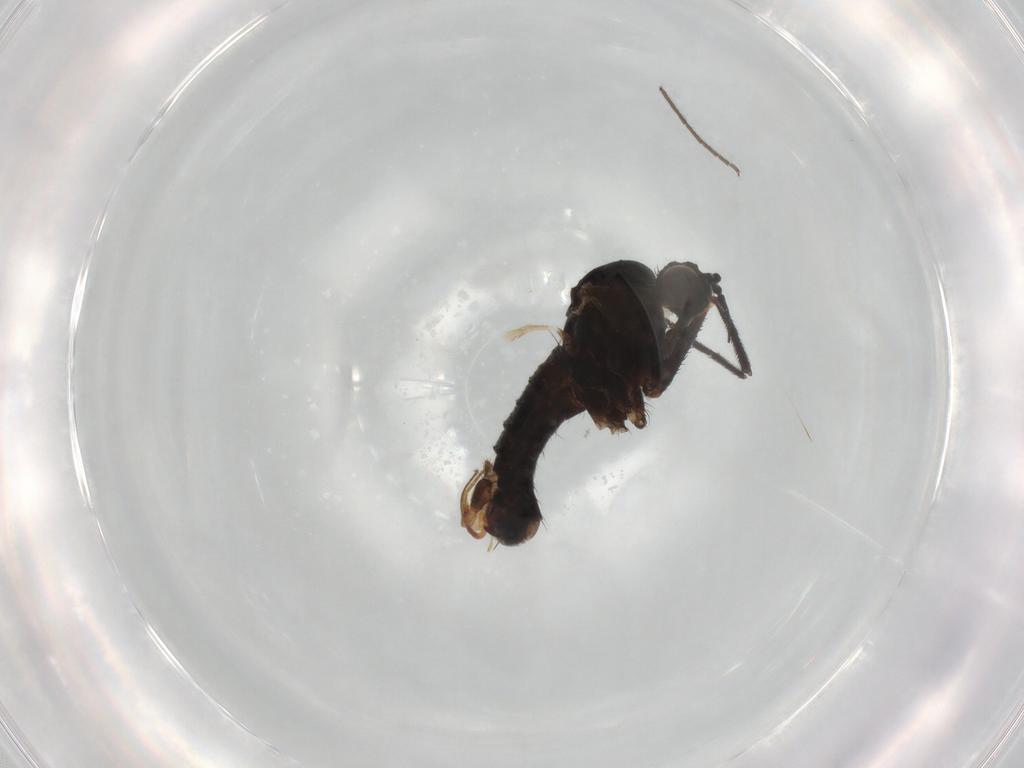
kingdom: Animalia
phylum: Arthropoda
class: Insecta
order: Diptera
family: Empididae
